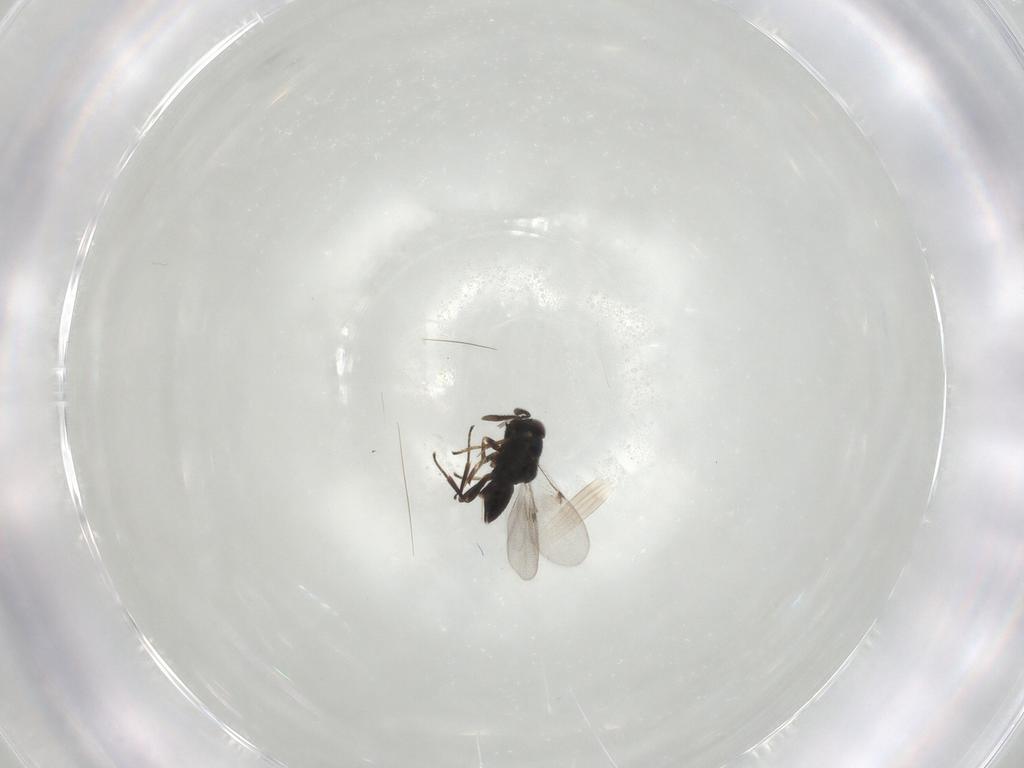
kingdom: Animalia
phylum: Arthropoda
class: Insecta
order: Hymenoptera
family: Encyrtidae
